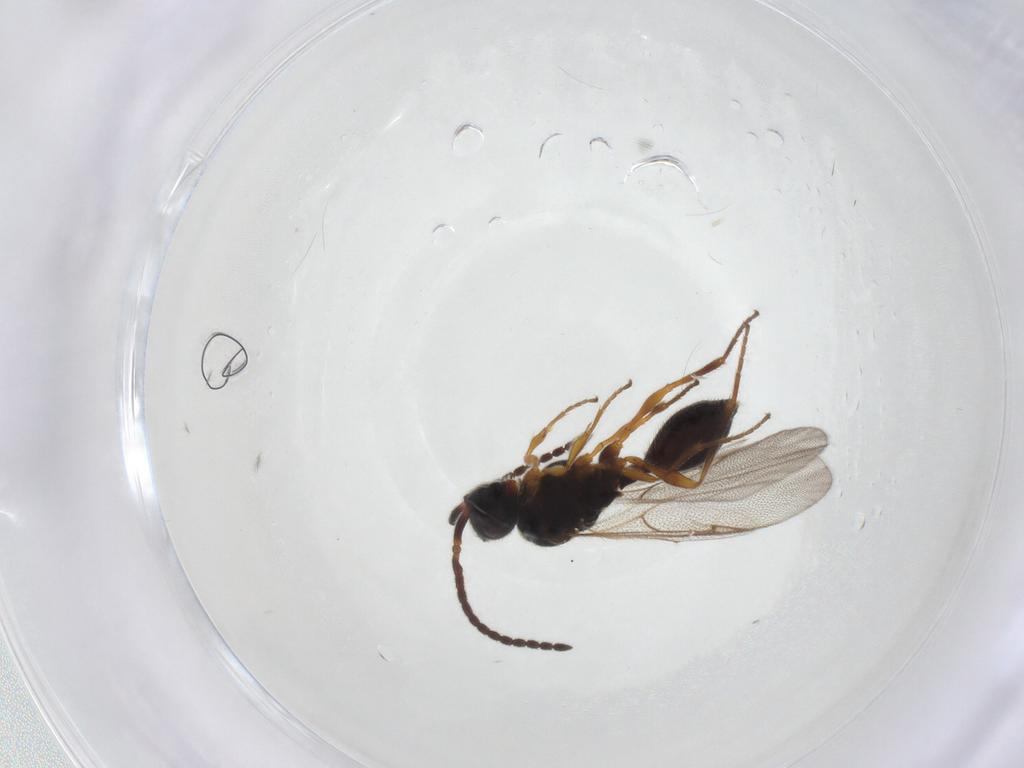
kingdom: Animalia
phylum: Arthropoda
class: Insecta
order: Hymenoptera
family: Diapriidae
